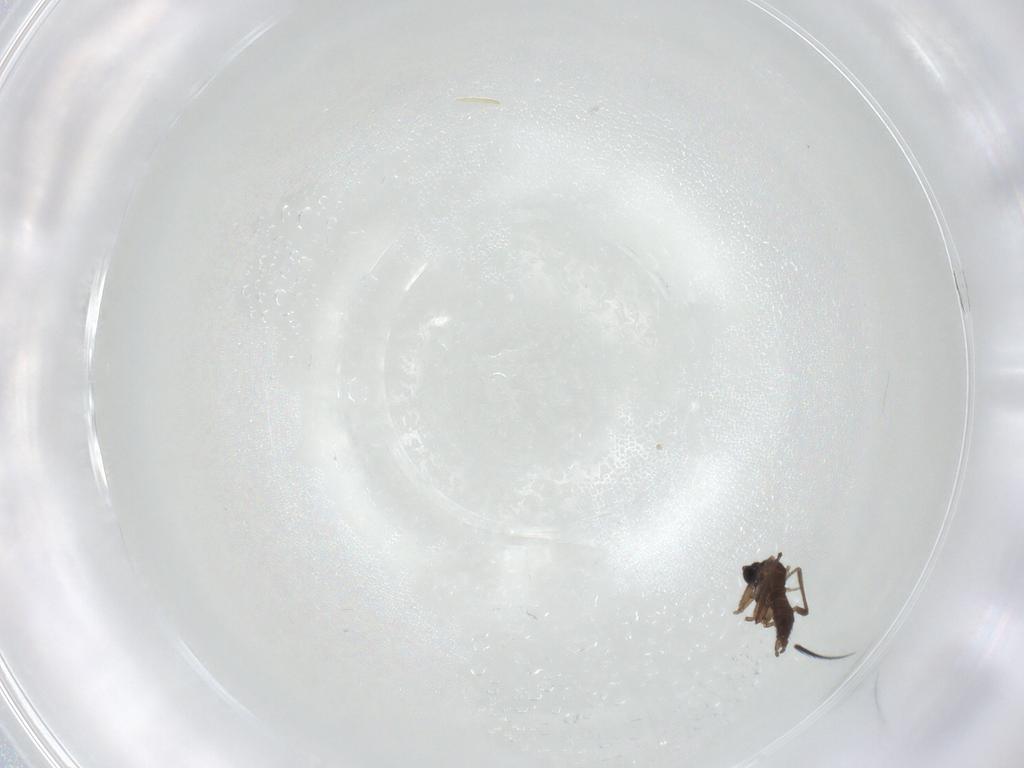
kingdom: Animalia
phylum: Arthropoda
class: Insecta
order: Diptera
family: Sciaridae
